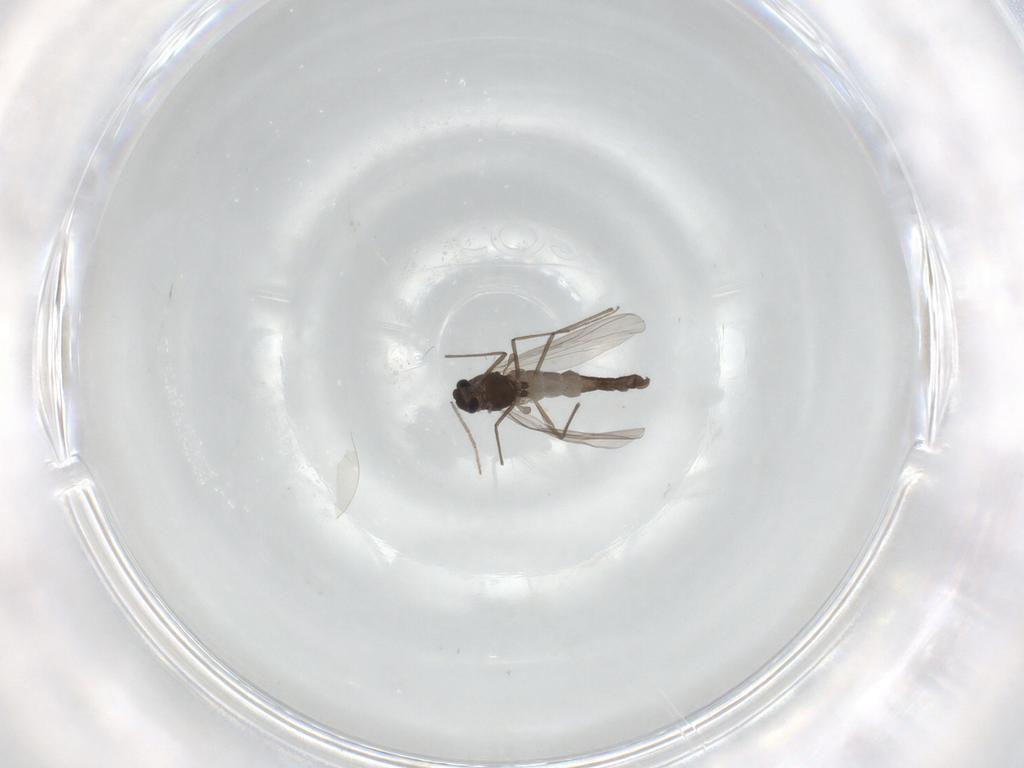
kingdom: Animalia
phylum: Arthropoda
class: Insecta
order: Diptera
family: Chironomidae
